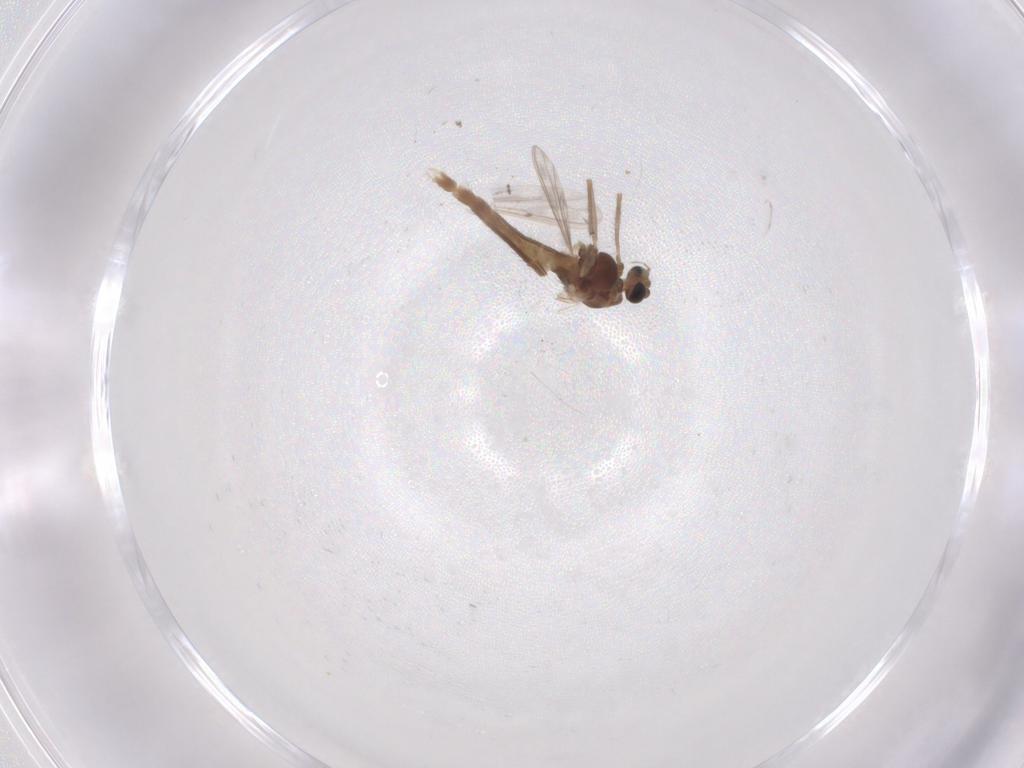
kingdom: Animalia
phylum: Arthropoda
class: Insecta
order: Diptera
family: Chironomidae
